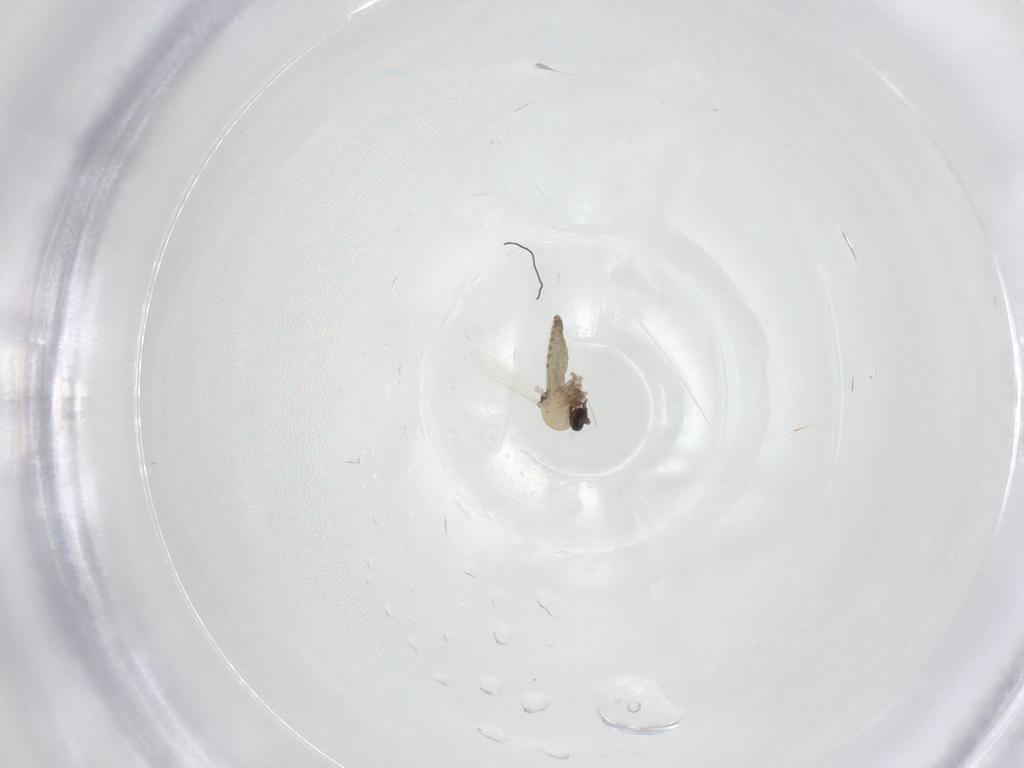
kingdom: Animalia
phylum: Arthropoda
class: Insecta
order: Diptera
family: Ceratopogonidae
